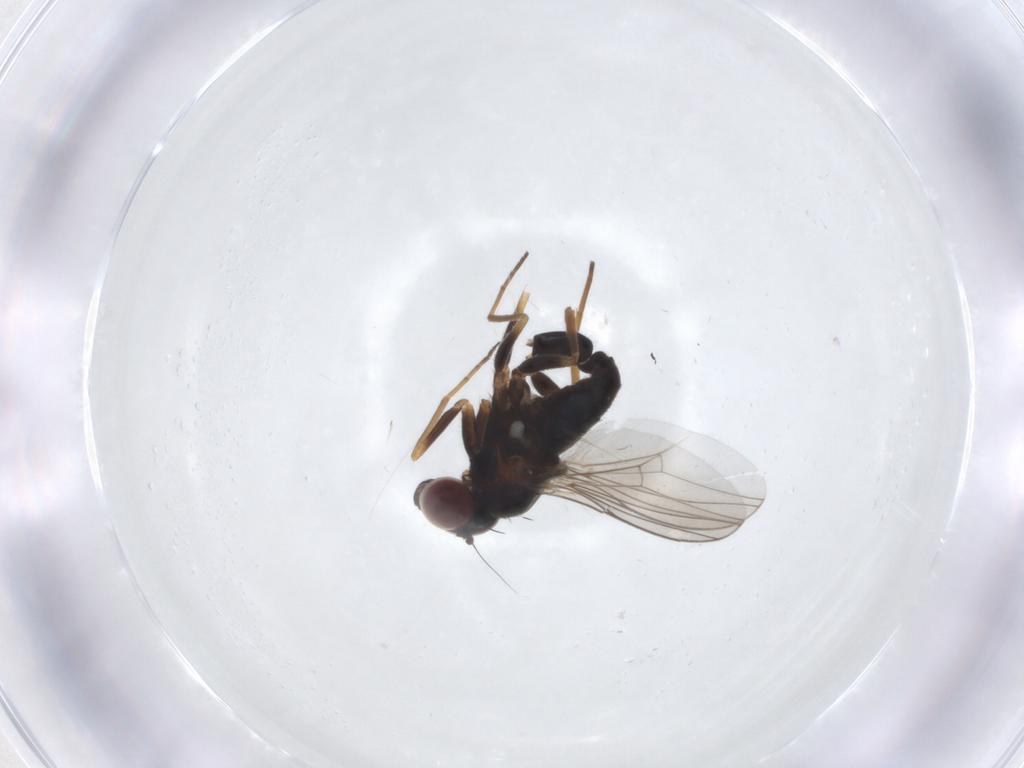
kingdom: Animalia
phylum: Arthropoda
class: Insecta
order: Diptera
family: Dolichopodidae
